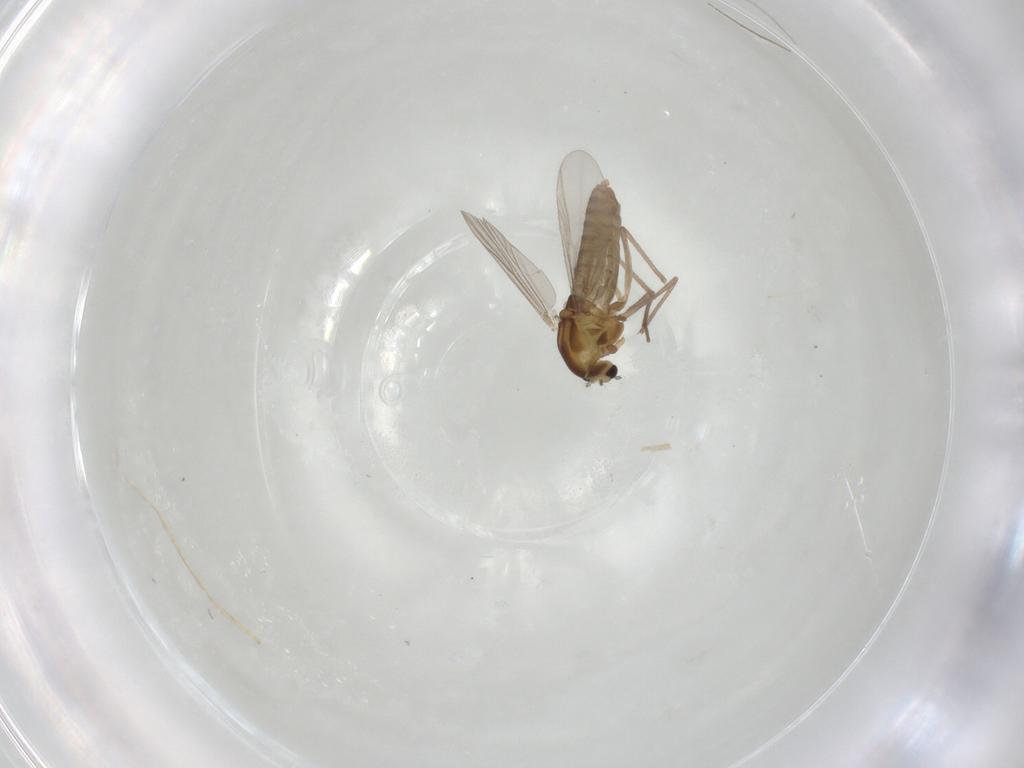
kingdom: Animalia
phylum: Arthropoda
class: Insecta
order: Diptera
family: Chironomidae
